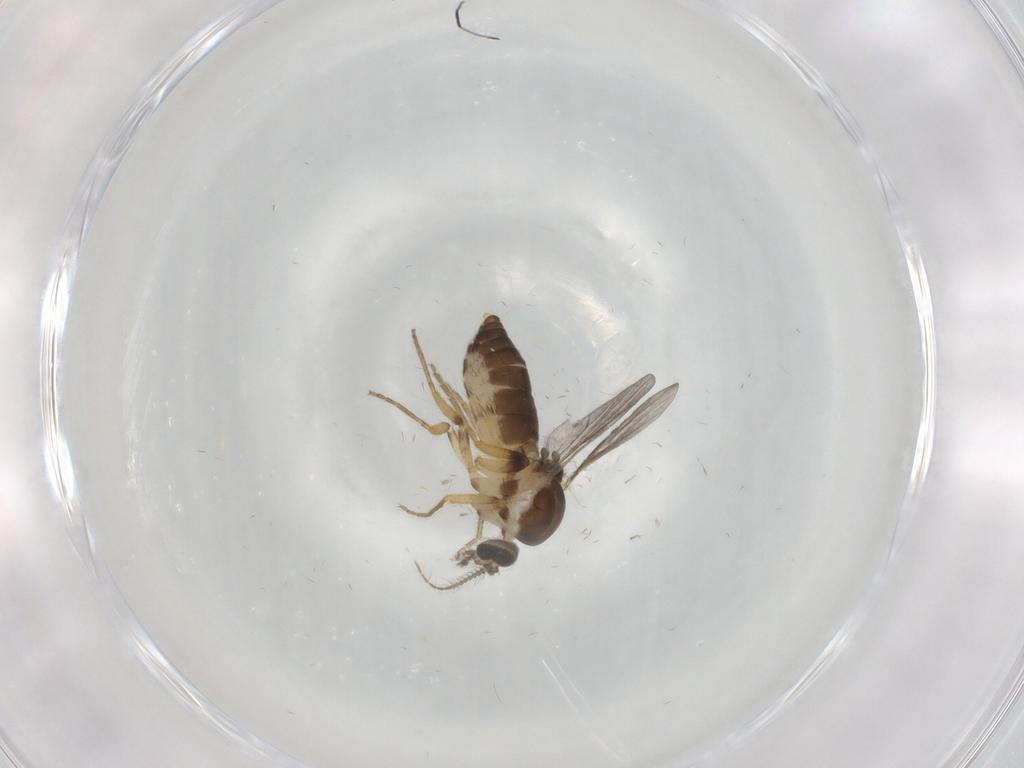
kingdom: Animalia
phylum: Arthropoda
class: Insecta
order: Diptera
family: Ceratopogonidae
